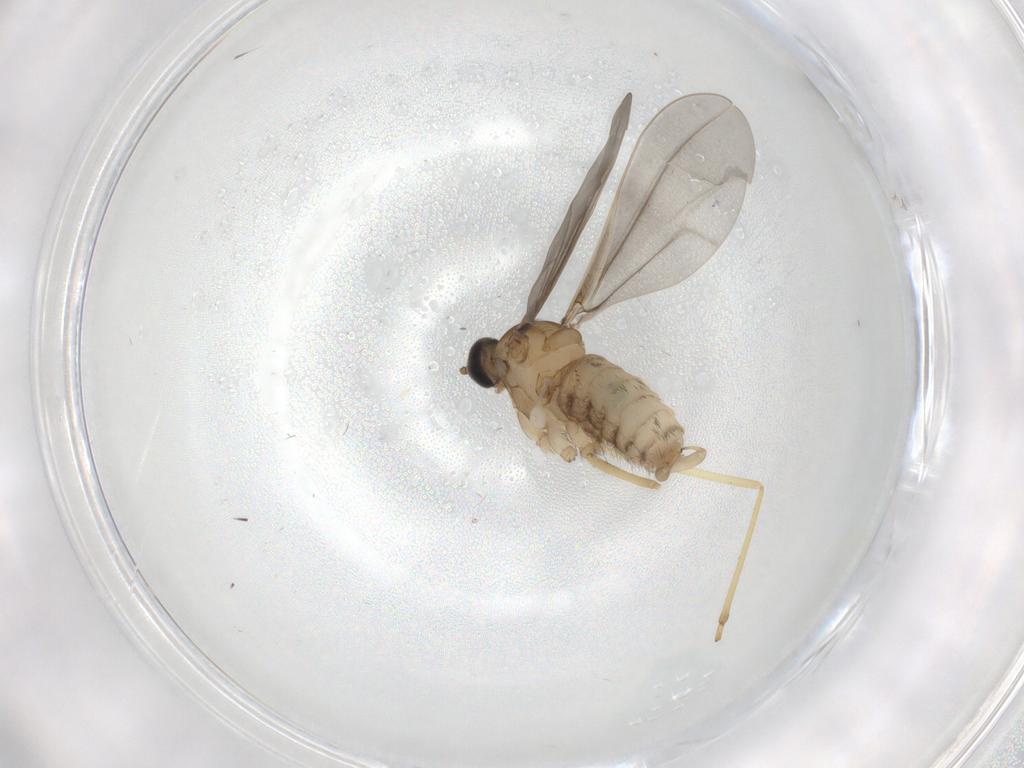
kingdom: Animalia
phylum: Arthropoda
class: Insecta
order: Diptera
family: Cecidomyiidae
